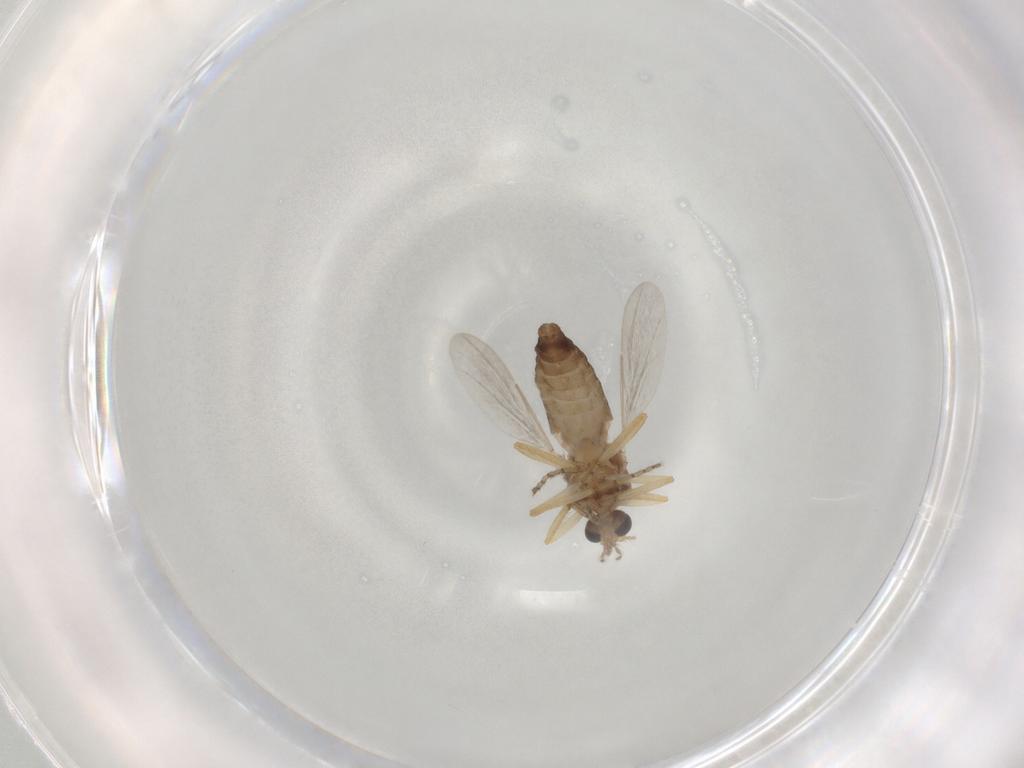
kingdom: Animalia
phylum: Arthropoda
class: Insecta
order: Diptera
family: Ceratopogonidae
